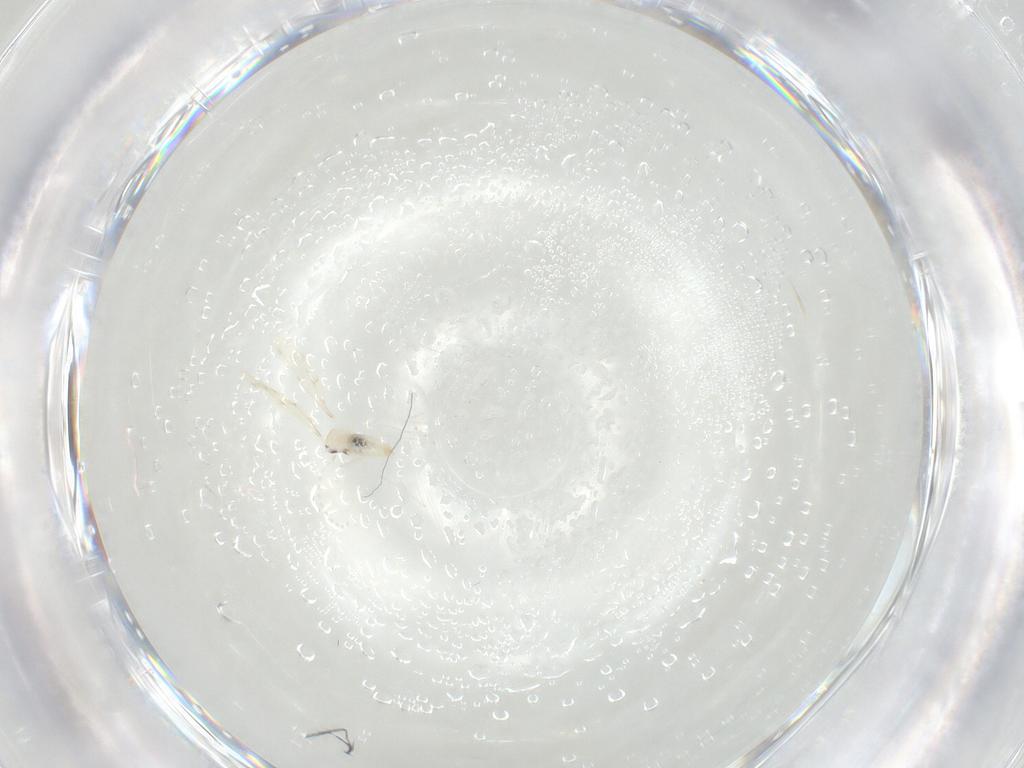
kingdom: Animalia
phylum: Arthropoda
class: Insecta
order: Diptera
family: Cecidomyiidae
